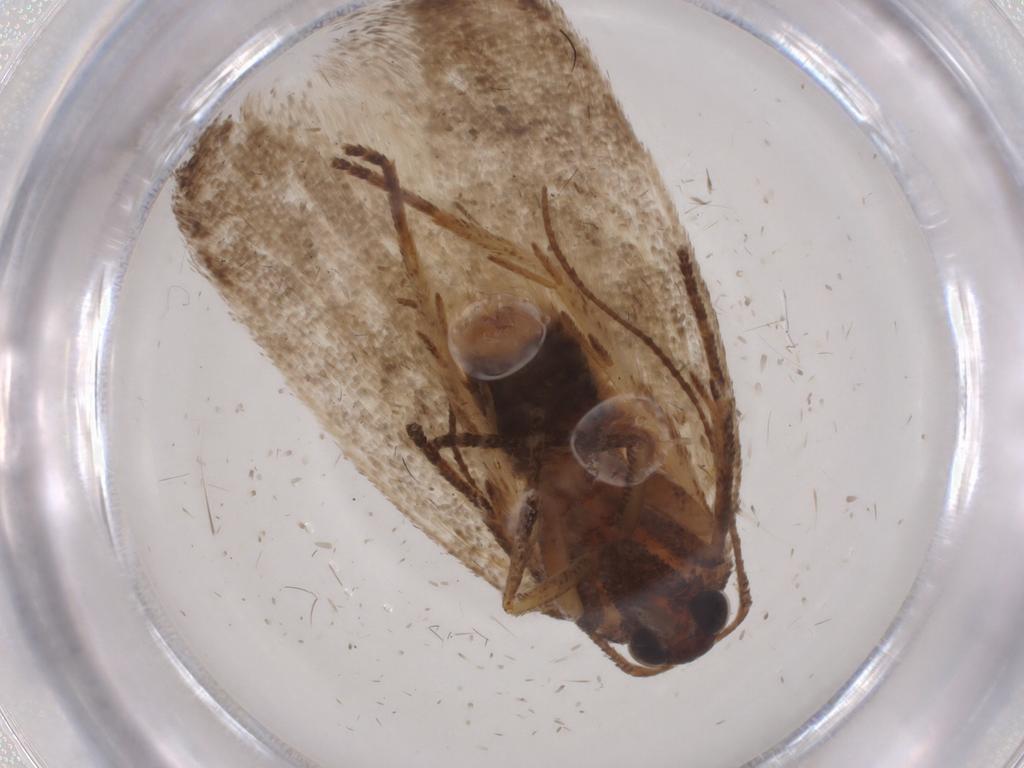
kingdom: Animalia
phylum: Arthropoda
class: Insecta
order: Lepidoptera
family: Cosmopterigidae
